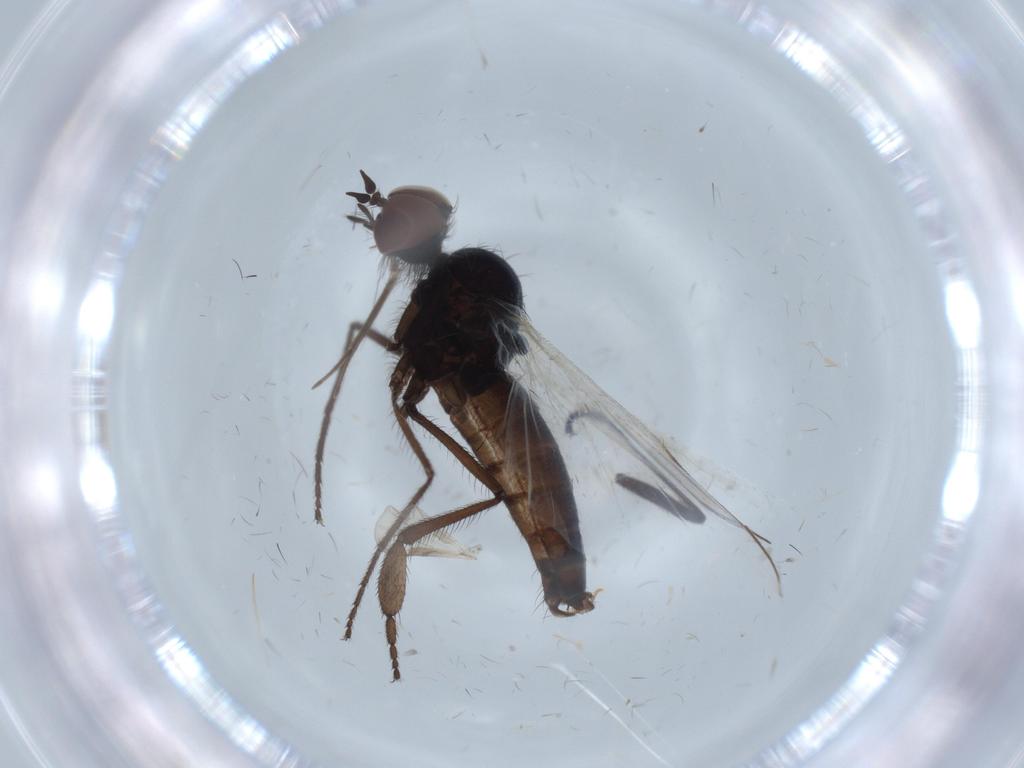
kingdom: Animalia
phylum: Arthropoda
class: Insecta
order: Diptera
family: Empididae
